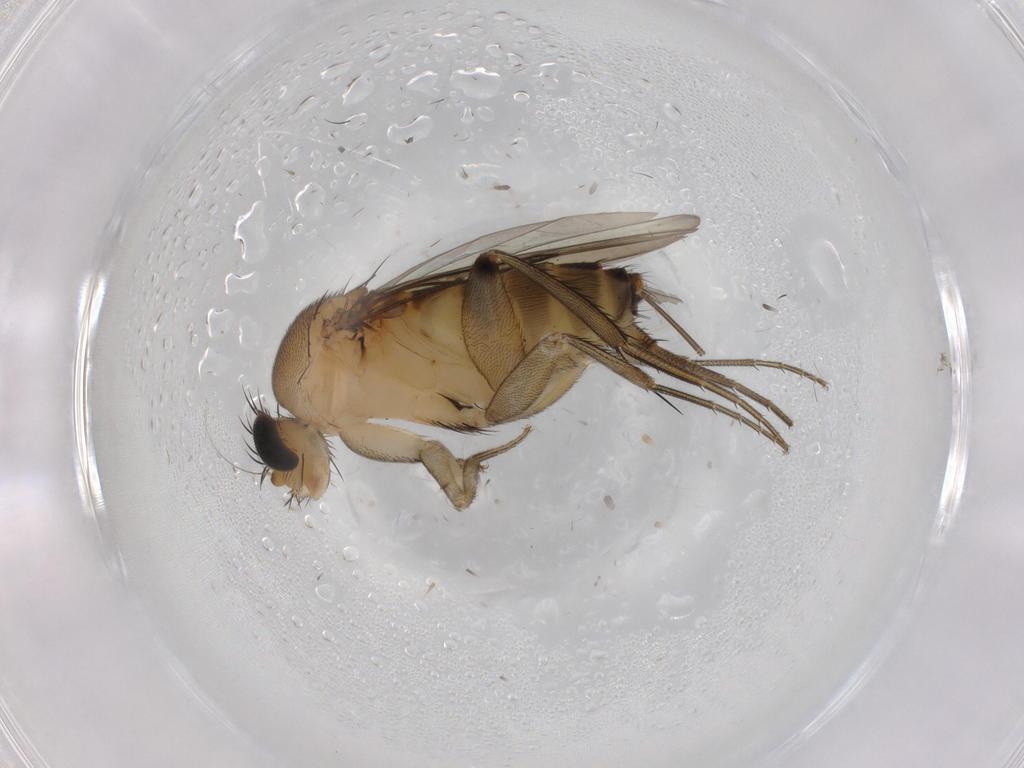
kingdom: Animalia
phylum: Arthropoda
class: Insecta
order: Diptera
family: Phoridae
